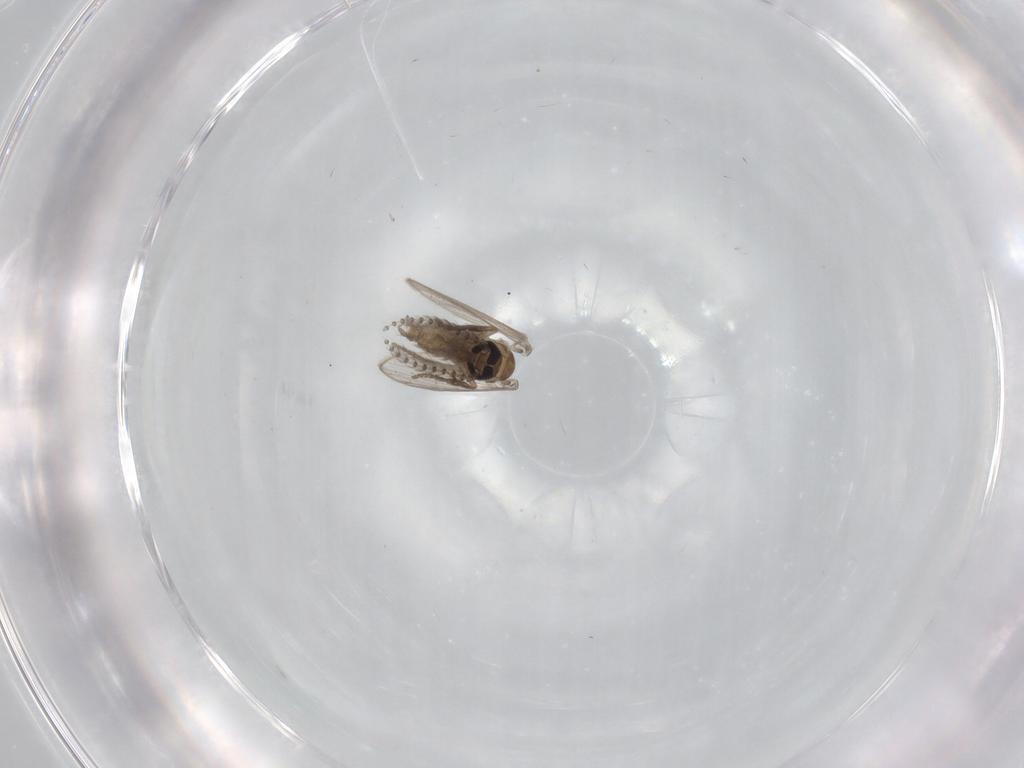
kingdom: Animalia
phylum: Arthropoda
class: Insecta
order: Diptera
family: Psychodidae
